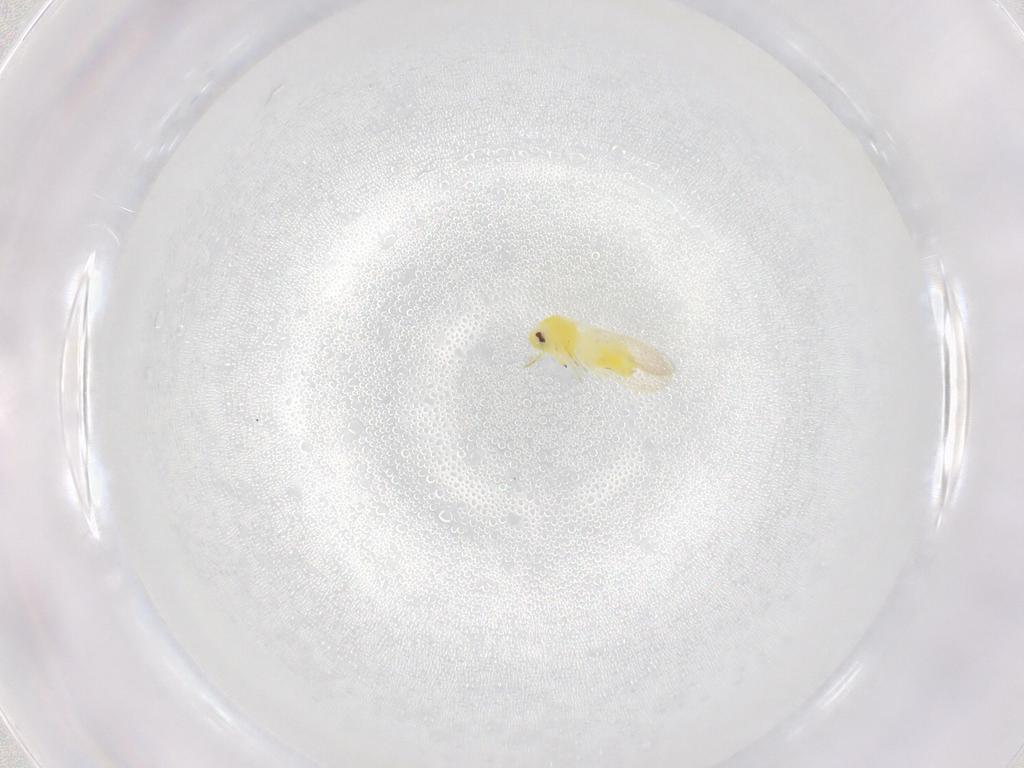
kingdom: Animalia
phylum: Arthropoda
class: Insecta
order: Hemiptera
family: Aleyrodidae
